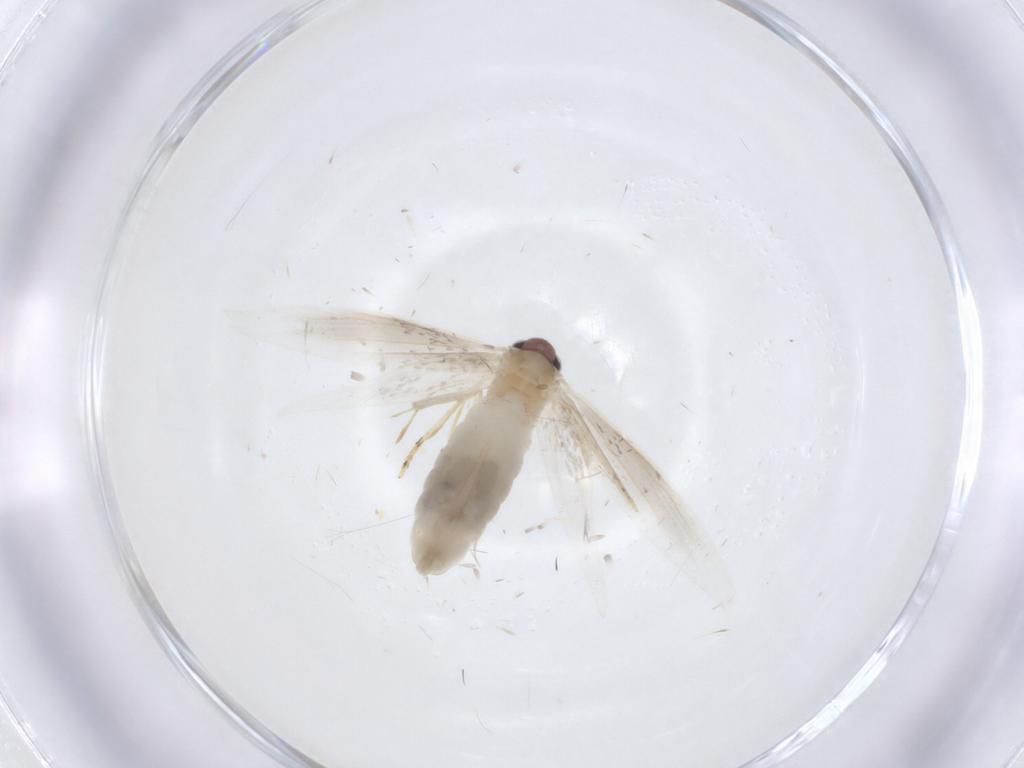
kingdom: Animalia
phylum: Arthropoda
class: Insecta
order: Lepidoptera
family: Gelechiidae
